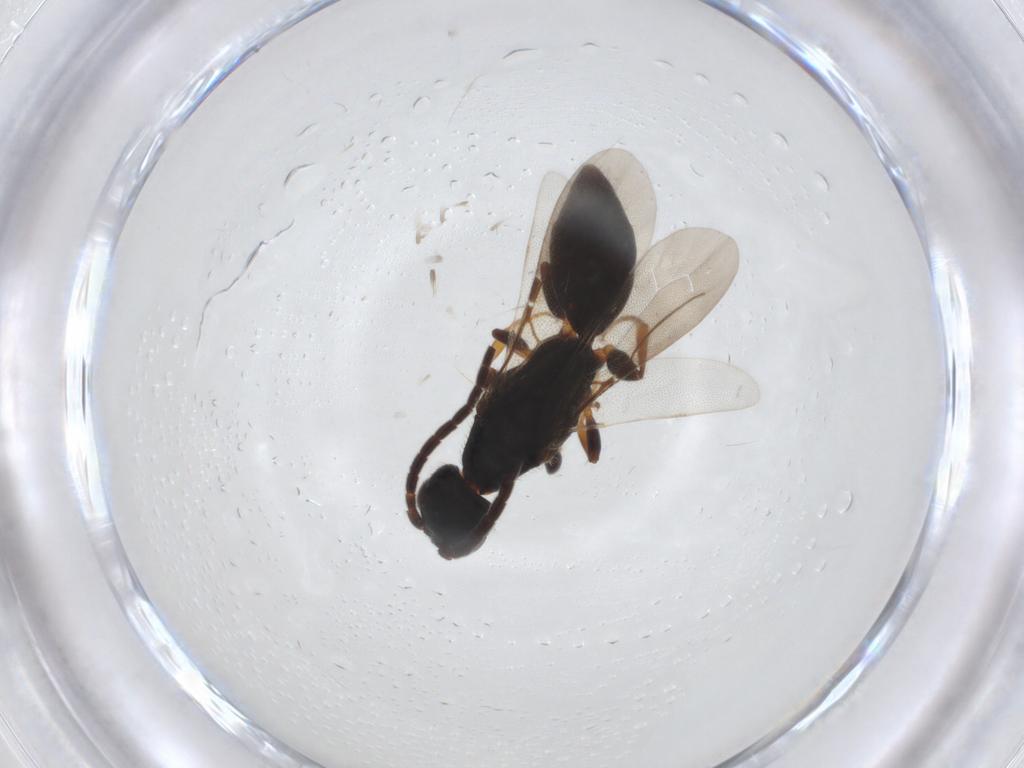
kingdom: Animalia
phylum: Arthropoda
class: Insecta
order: Hymenoptera
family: Bethylidae
